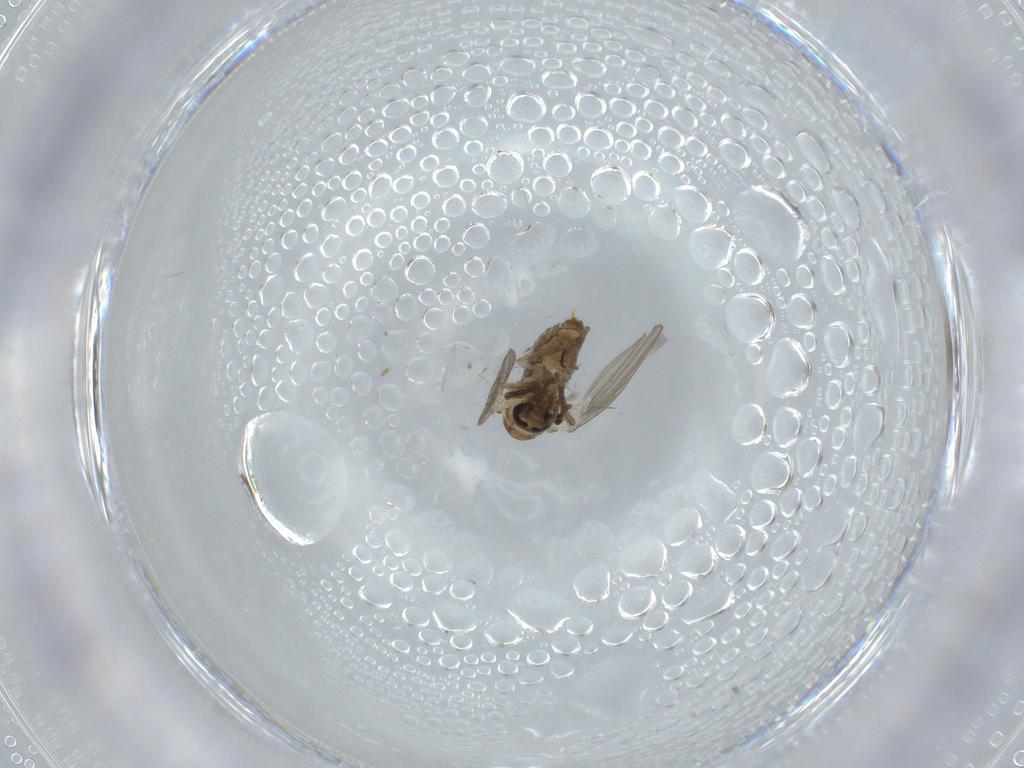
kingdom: Animalia
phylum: Arthropoda
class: Insecta
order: Diptera
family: Psychodidae
